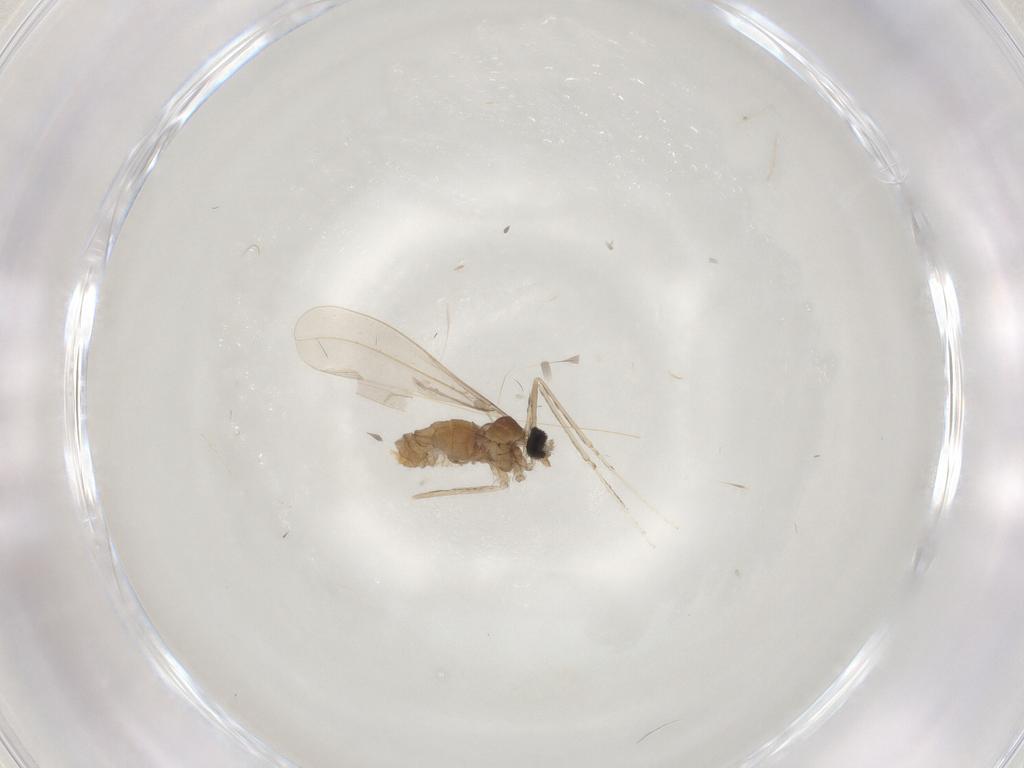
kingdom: Animalia
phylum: Arthropoda
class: Insecta
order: Diptera
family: Cecidomyiidae
